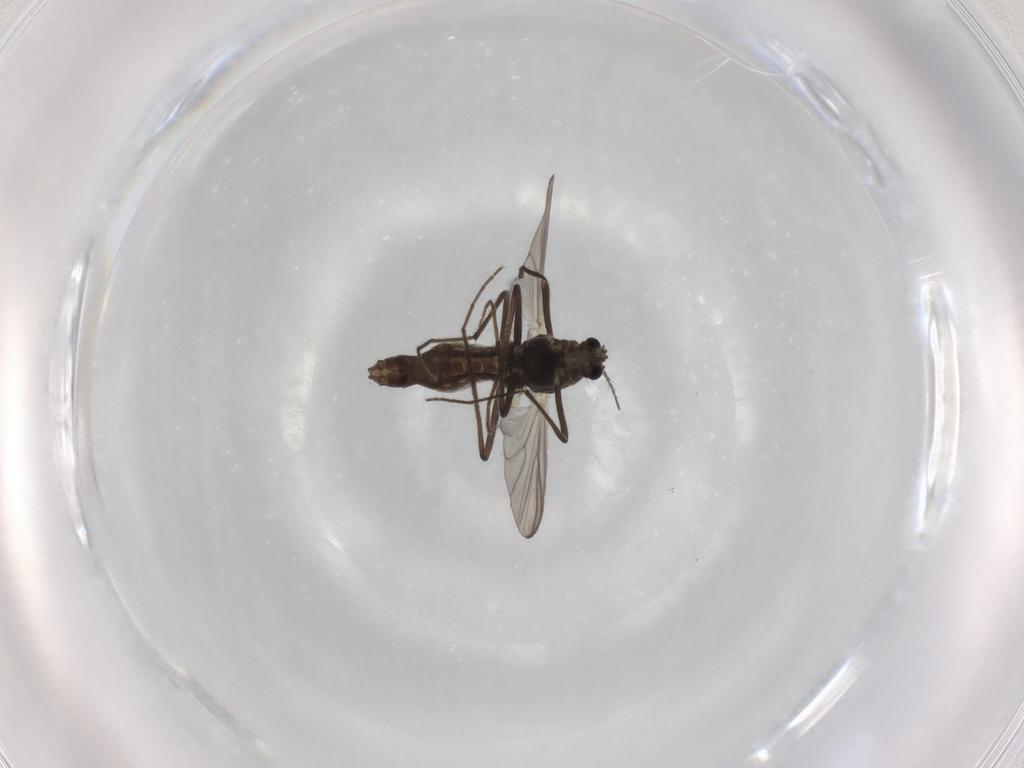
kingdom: Animalia
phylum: Arthropoda
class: Insecta
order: Diptera
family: Chironomidae
